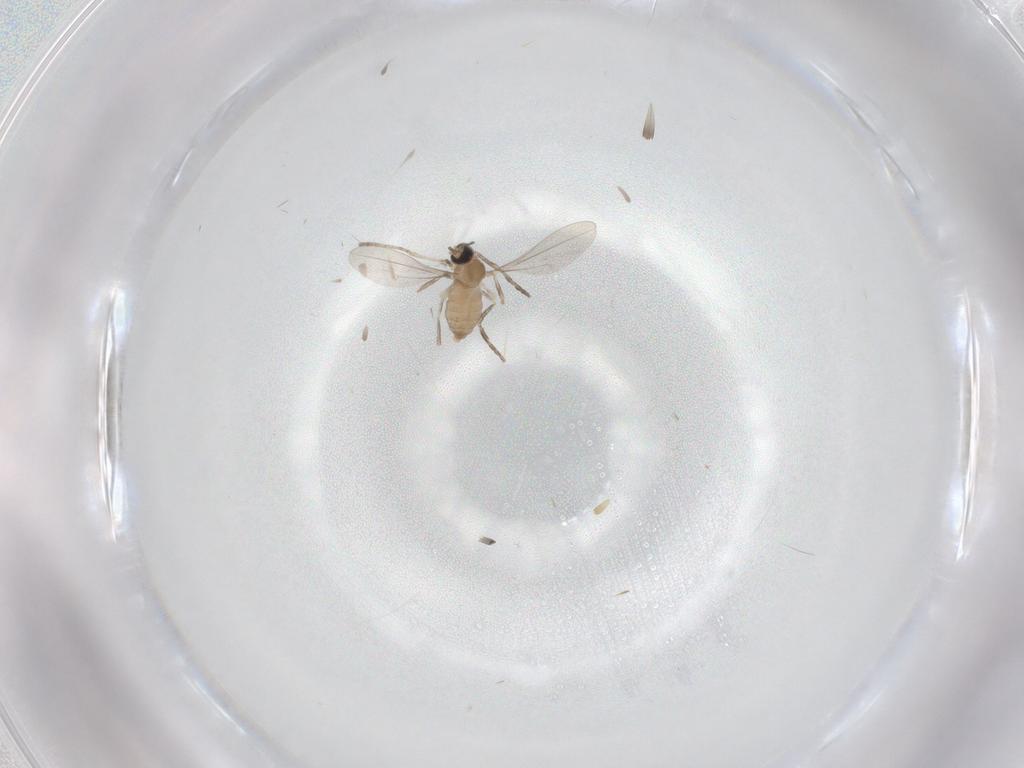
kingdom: Animalia
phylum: Arthropoda
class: Insecta
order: Diptera
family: Cecidomyiidae
